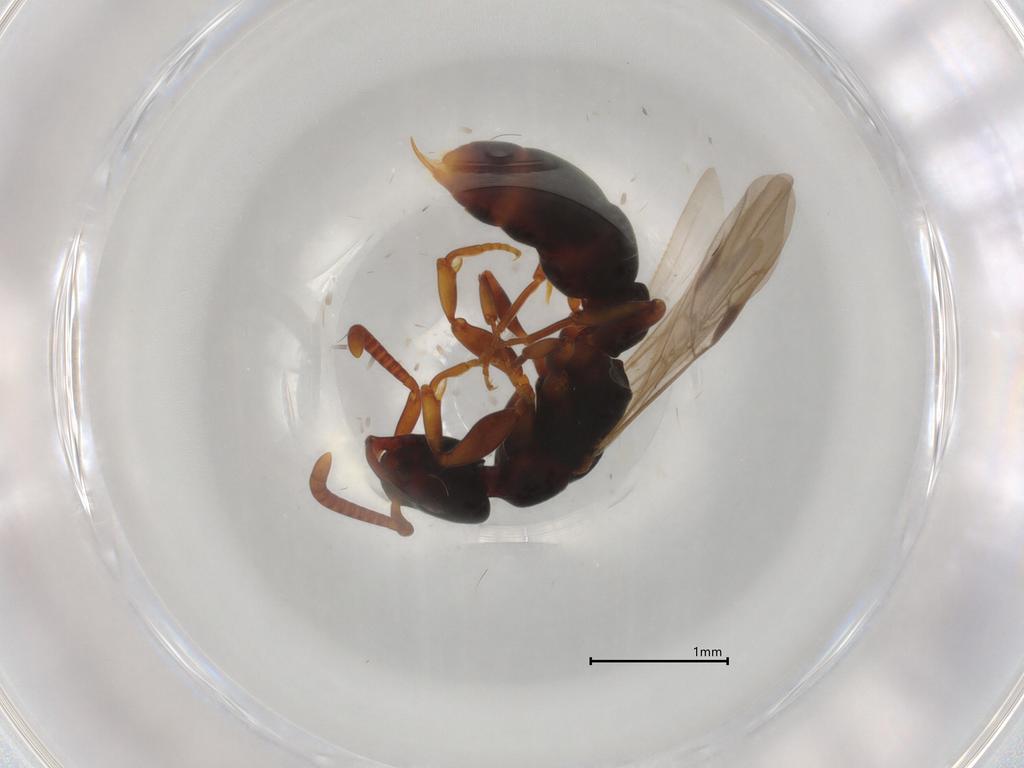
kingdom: Animalia
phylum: Arthropoda
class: Insecta
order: Hymenoptera
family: Formicidae
